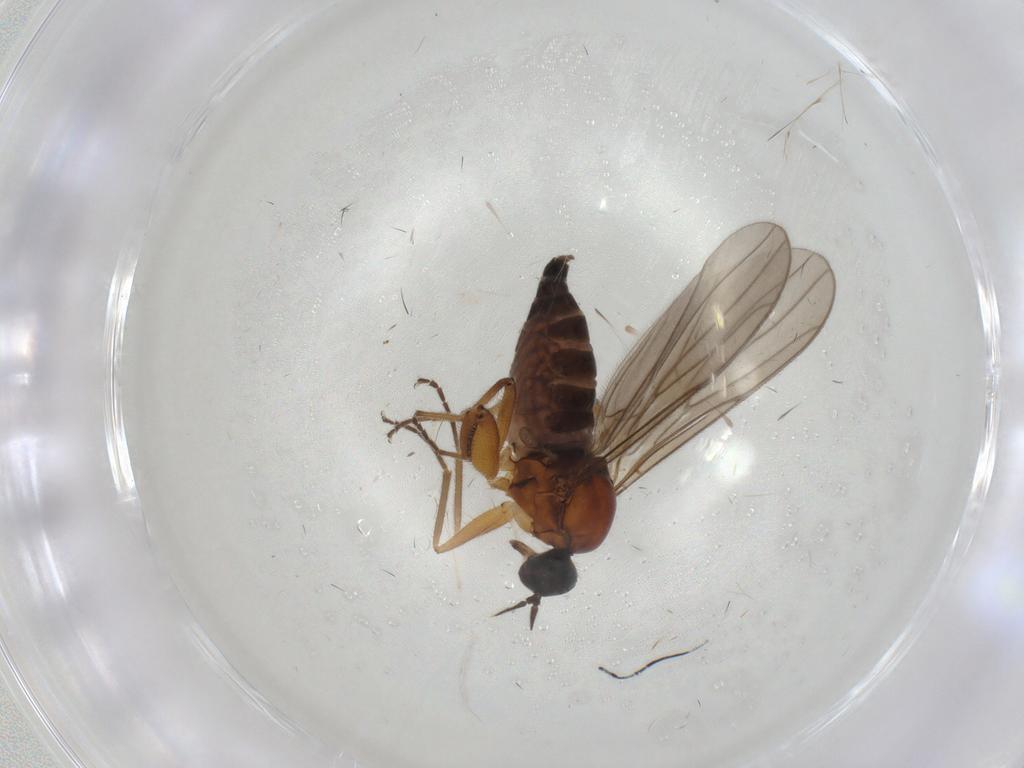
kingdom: Animalia
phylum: Arthropoda
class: Insecta
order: Diptera
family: Hybotidae
